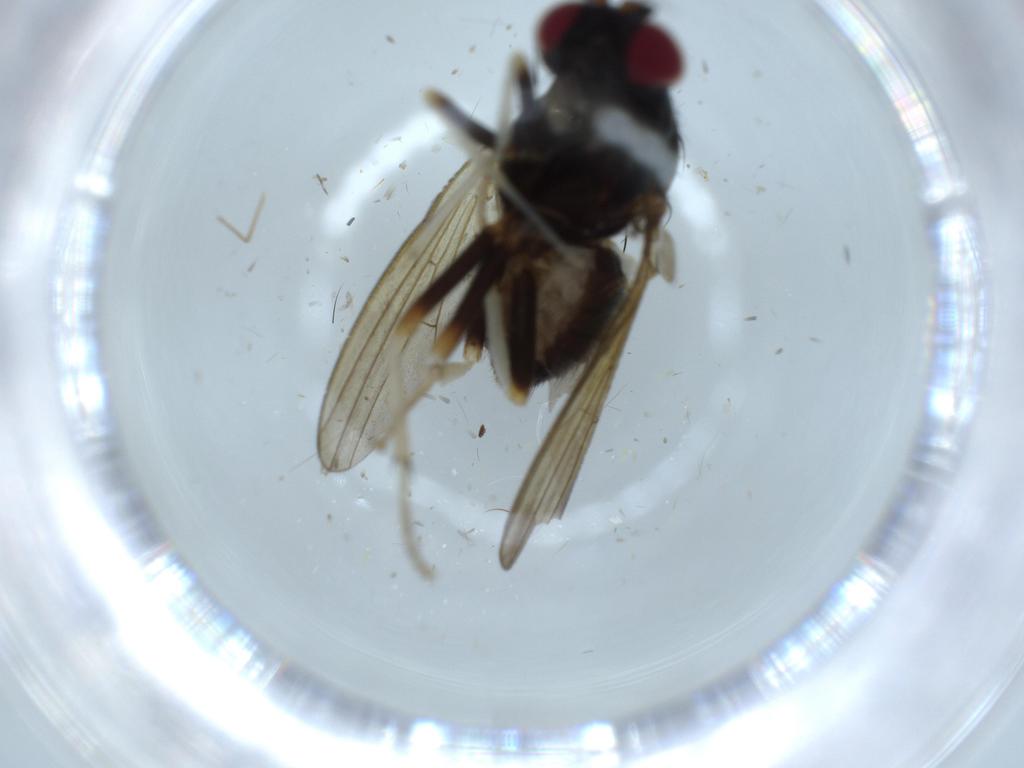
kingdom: Animalia
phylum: Arthropoda
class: Insecta
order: Diptera
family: Lauxaniidae
